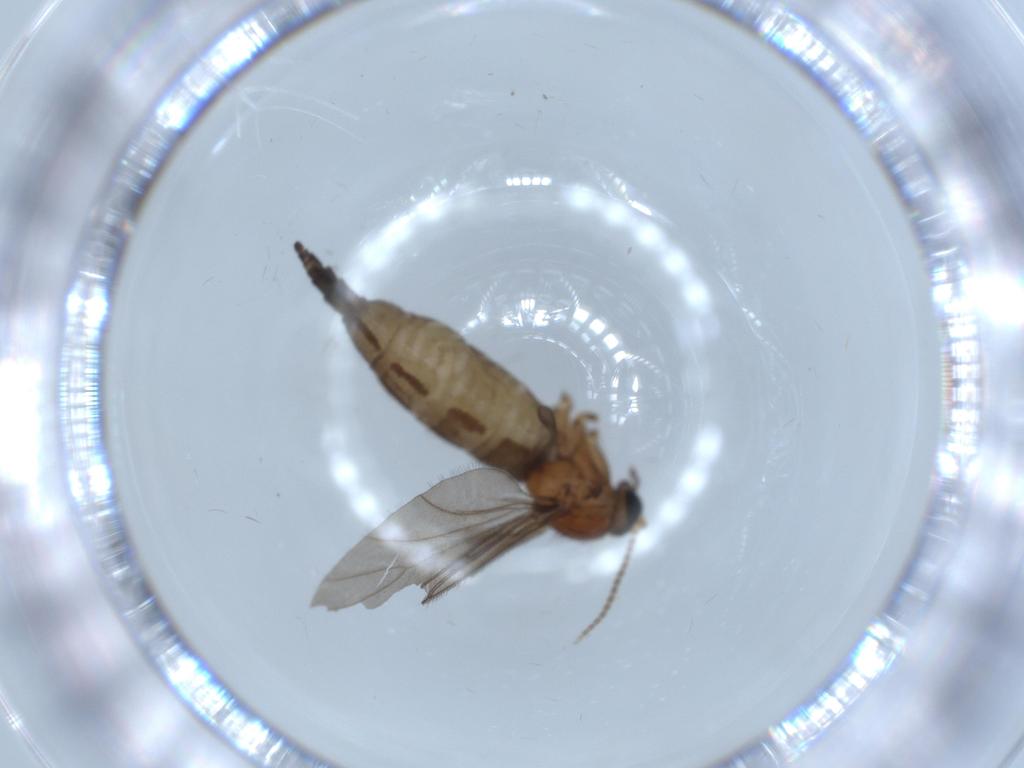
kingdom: Animalia
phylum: Arthropoda
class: Insecta
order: Diptera
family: Sciaridae
